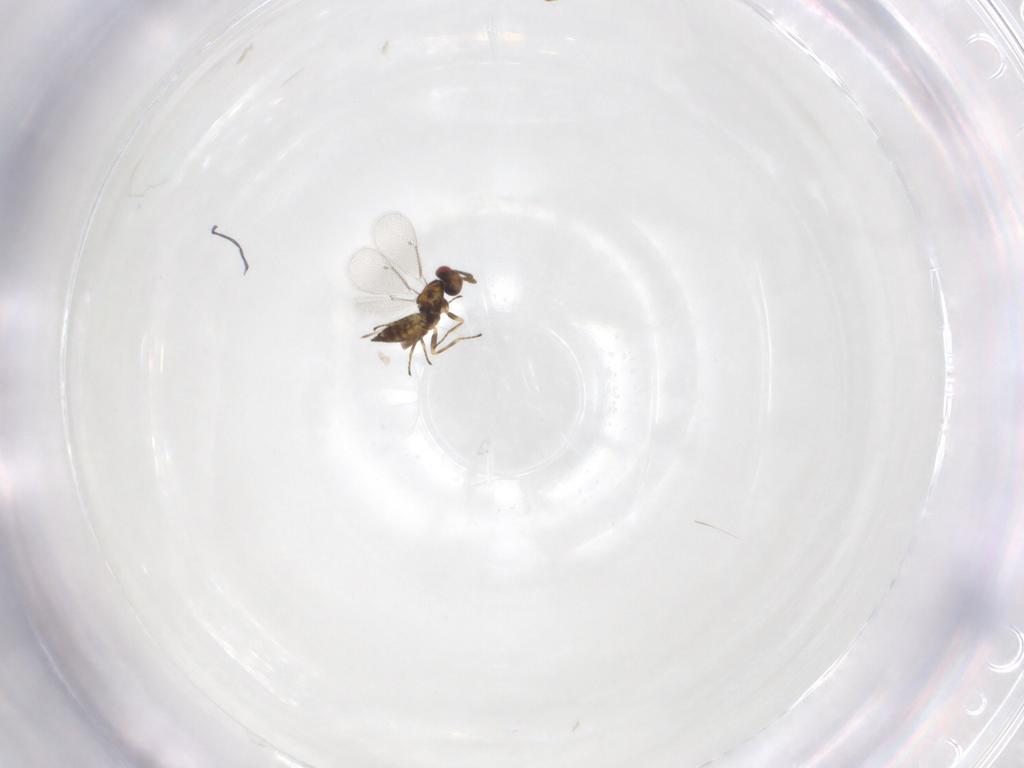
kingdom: Animalia
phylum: Arthropoda
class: Insecta
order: Hymenoptera
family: Eulophidae
